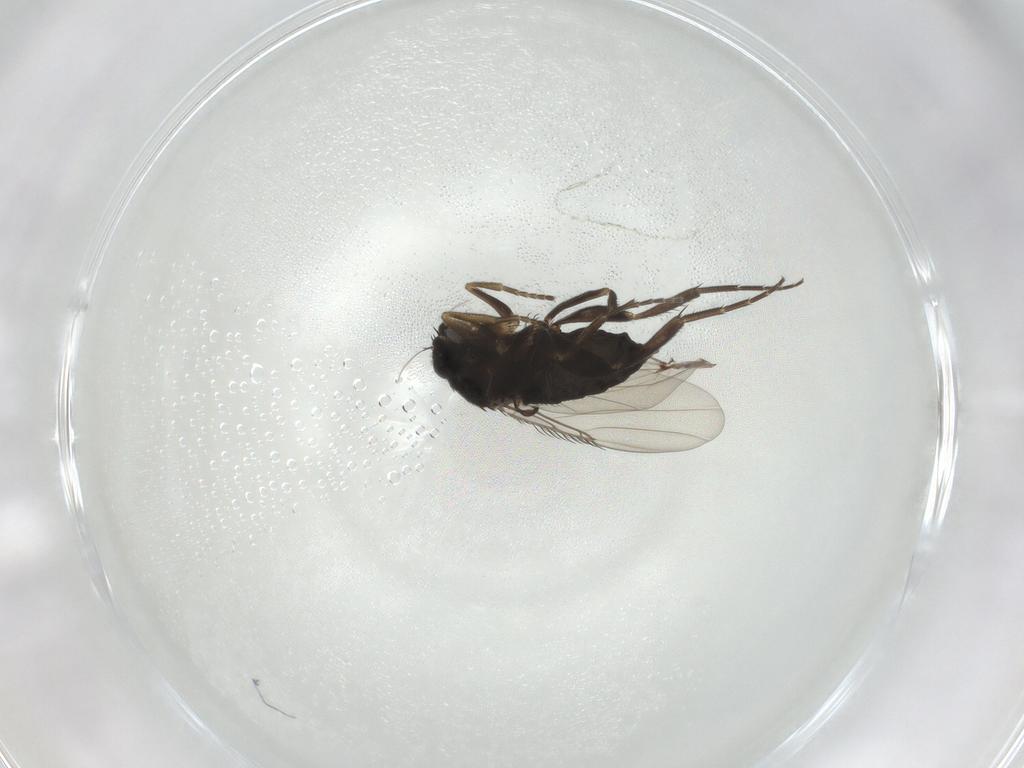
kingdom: Animalia
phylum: Arthropoda
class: Insecta
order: Diptera
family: Phoridae
